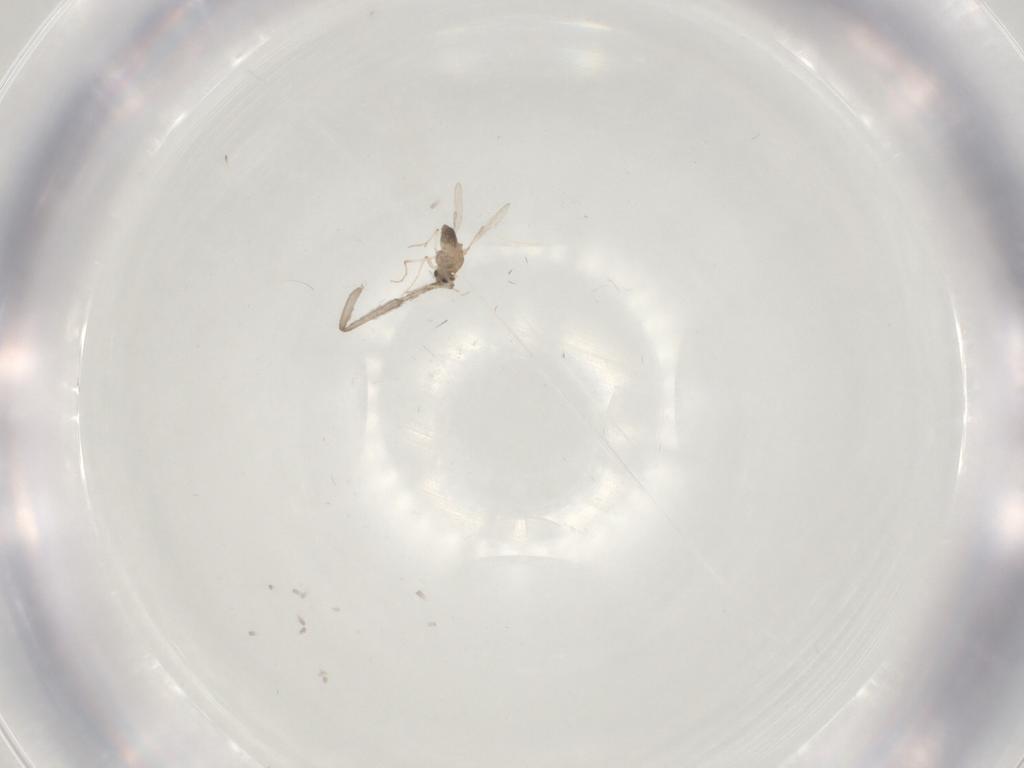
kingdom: Animalia
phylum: Arthropoda
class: Insecta
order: Diptera
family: Chironomidae
